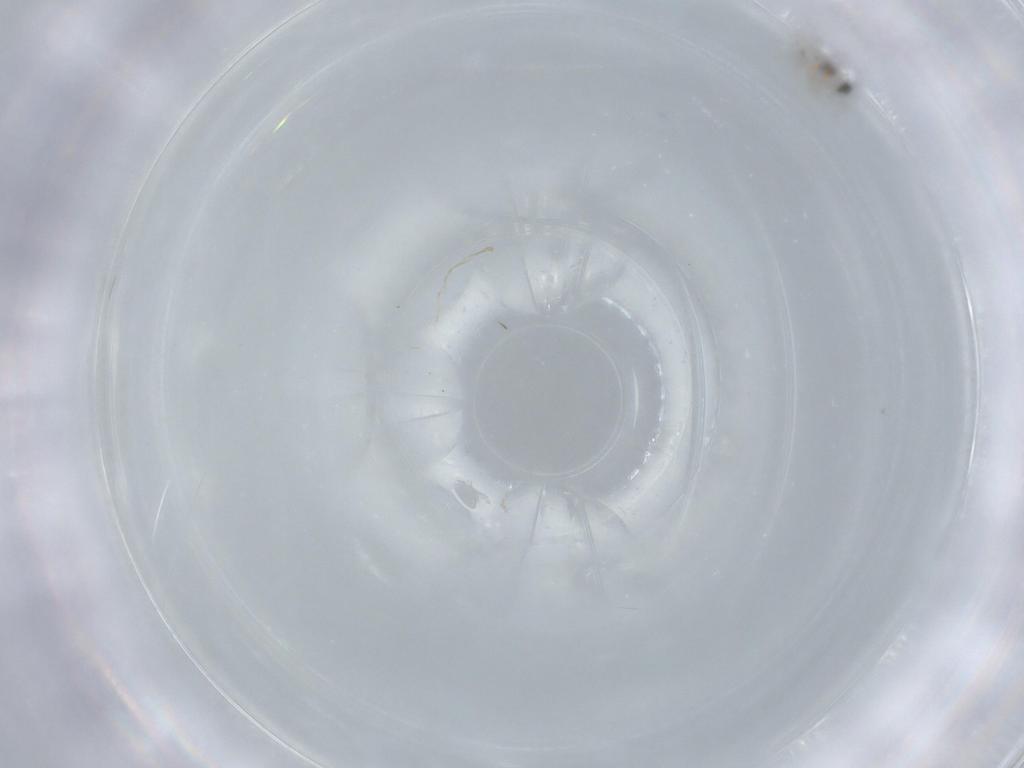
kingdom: Animalia
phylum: Arthropoda
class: Insecta
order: Diptera
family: Cecidomyiidae
